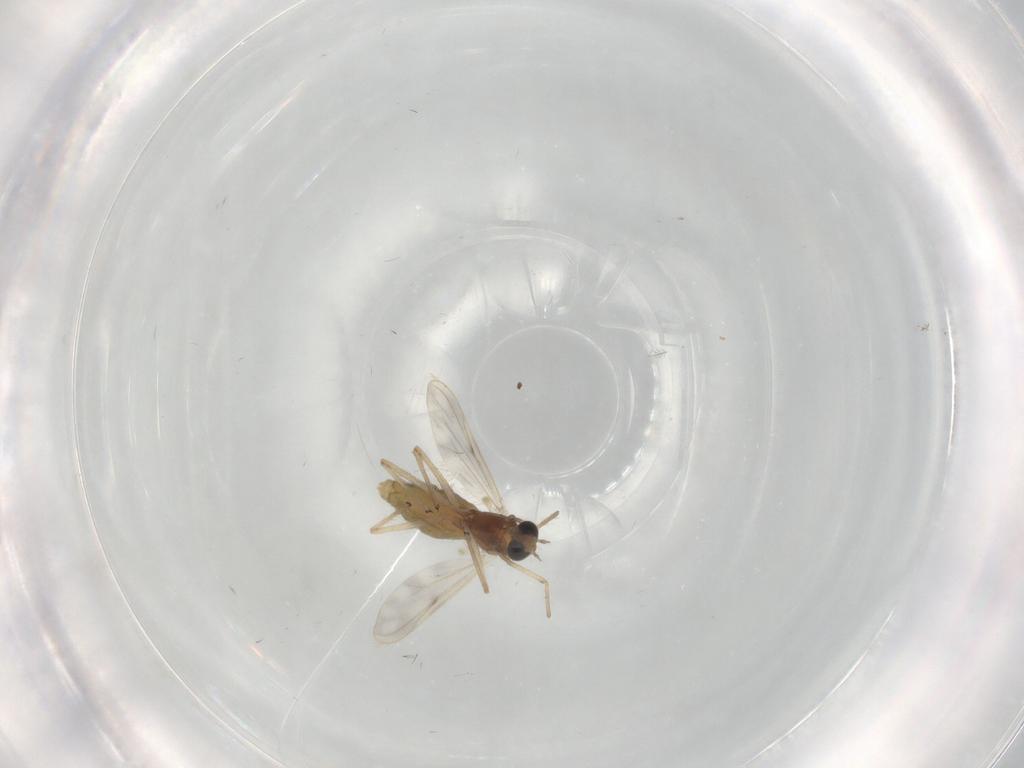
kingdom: Animalia
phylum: Arthropoda
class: Insecta
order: Diptera
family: Chironomidae
